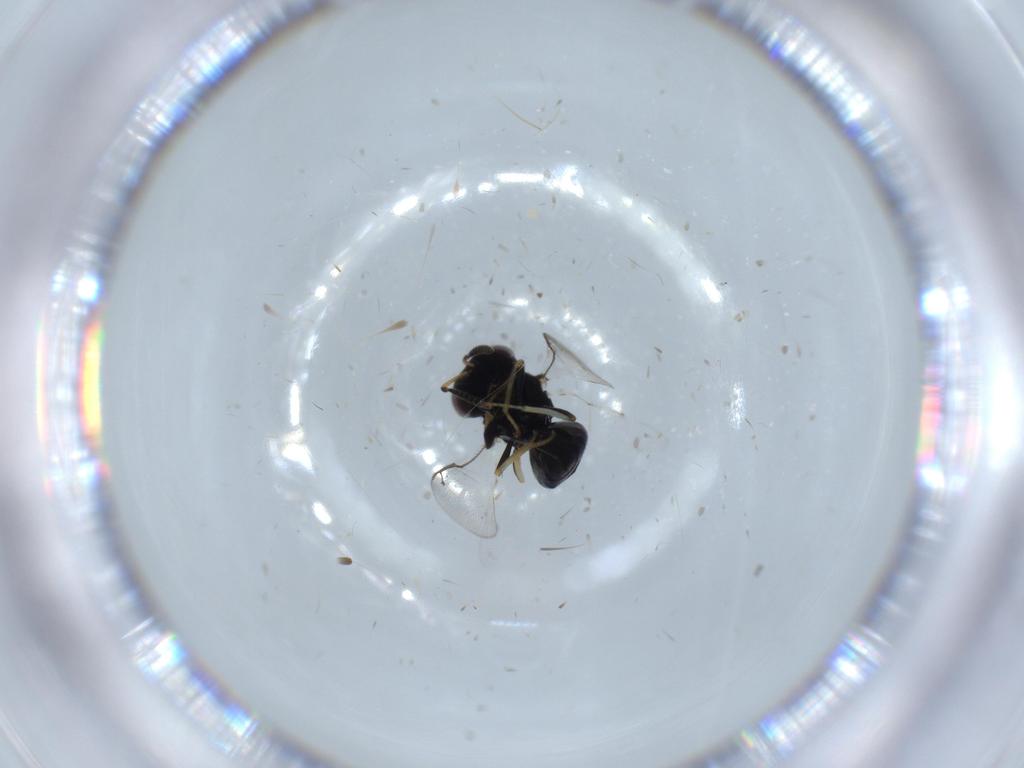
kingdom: Animalia
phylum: Arthropoda
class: Insecta
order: Hymenoptera
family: Pteromalidae
